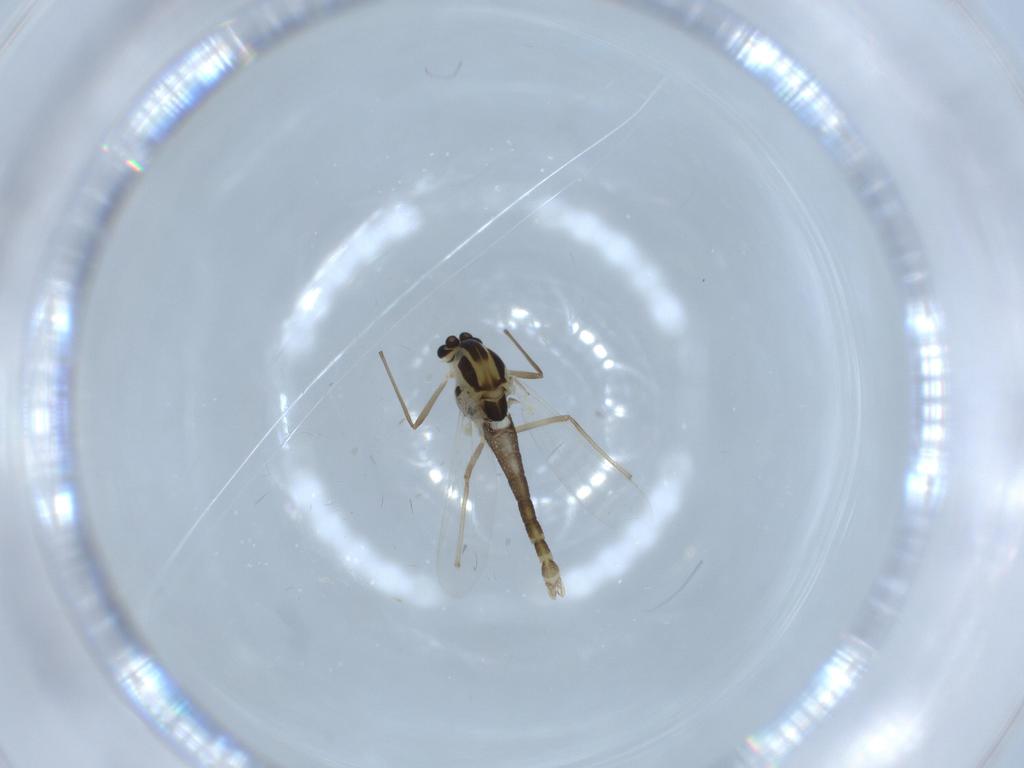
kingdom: Animalia
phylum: Arthropoda
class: Insecta
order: Diptera
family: Chironomidae
